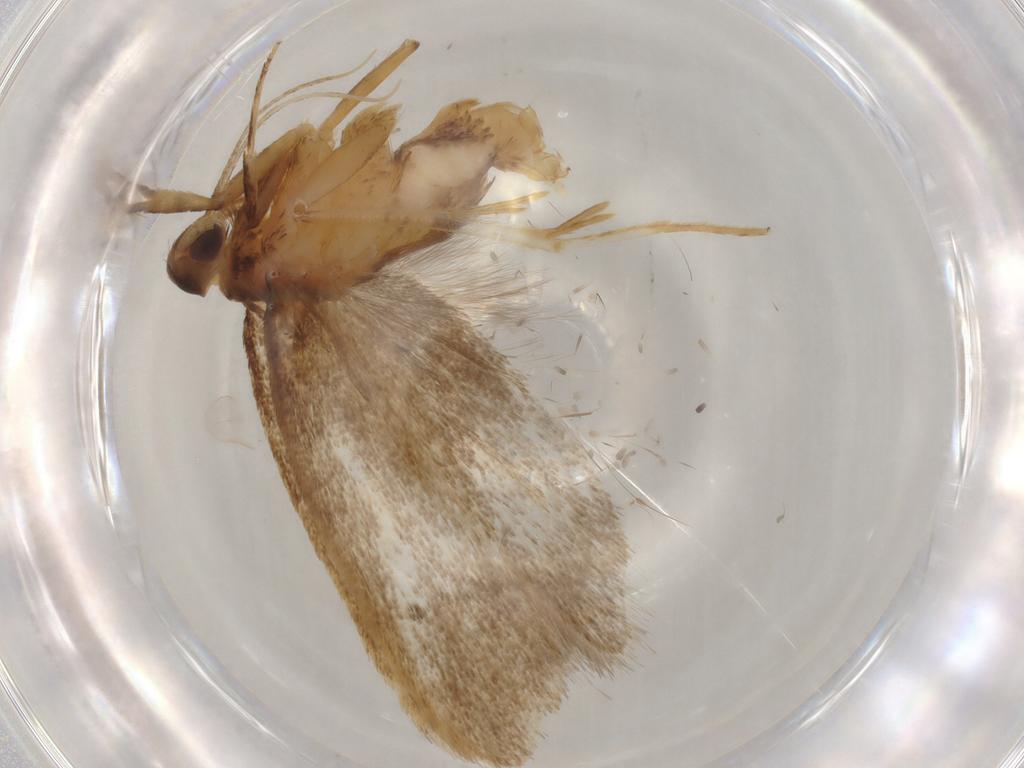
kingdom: Animalia
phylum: Arthropoda
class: Insecta
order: Lepidoptera
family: Lecithoceridae
